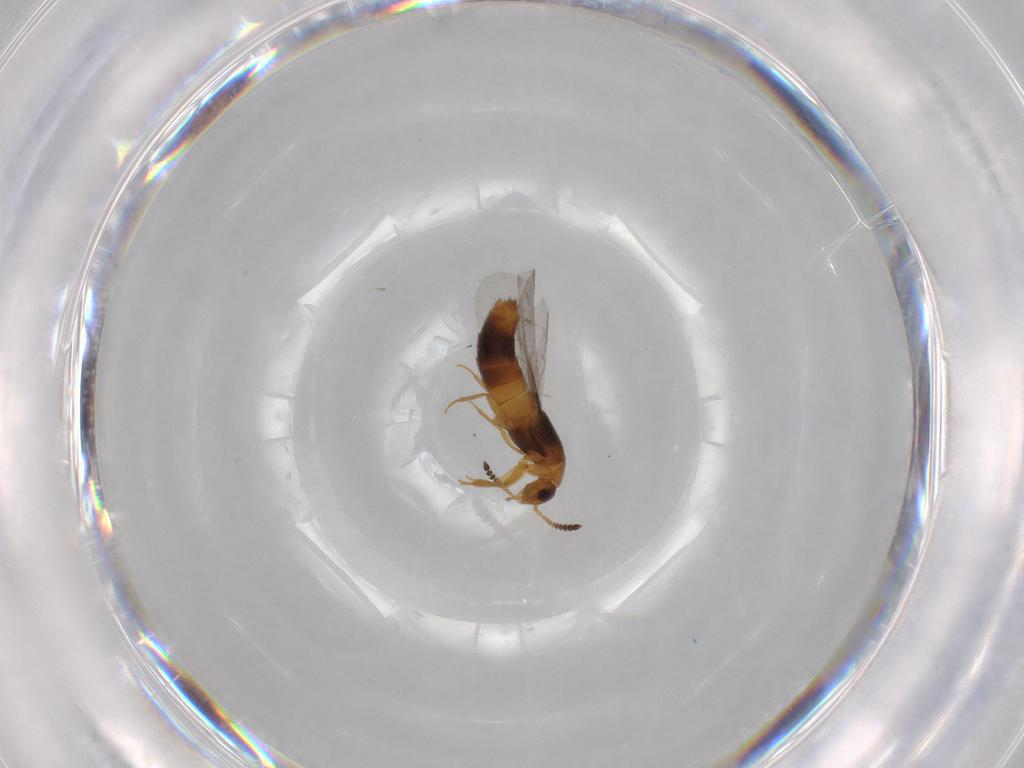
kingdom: Animalia
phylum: Arthropoda
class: Insecta
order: Coleoptera
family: Staphylinidae
